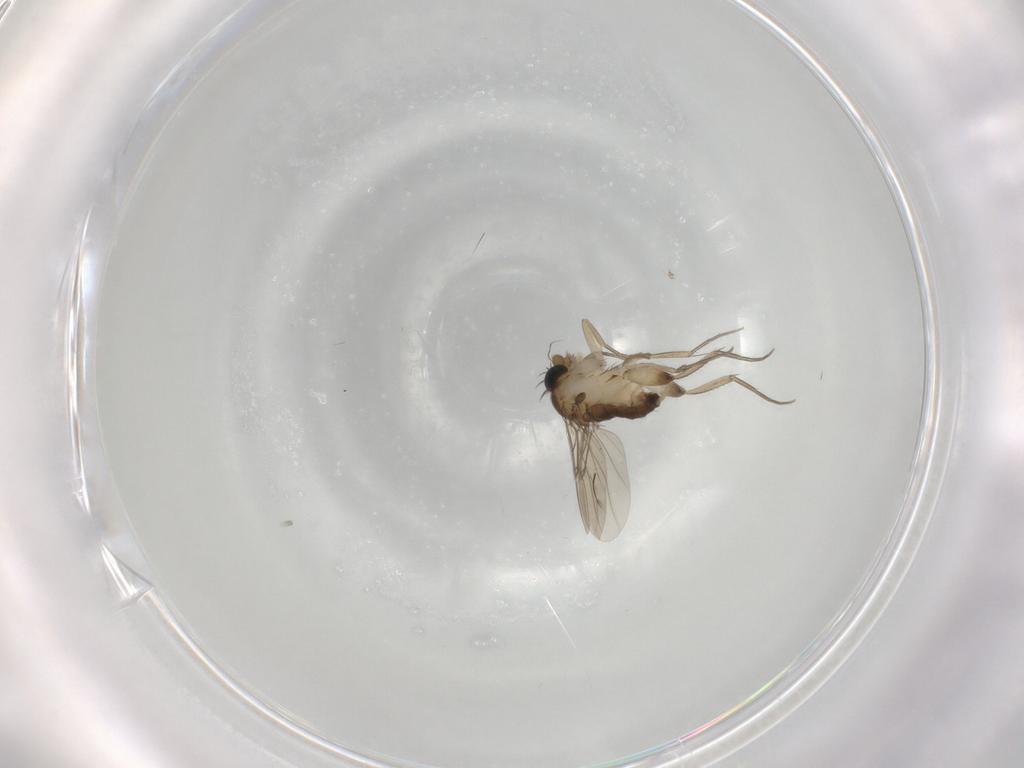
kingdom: Animalia
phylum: Arthropoda
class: Insecta
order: Diptera
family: Phoridae
